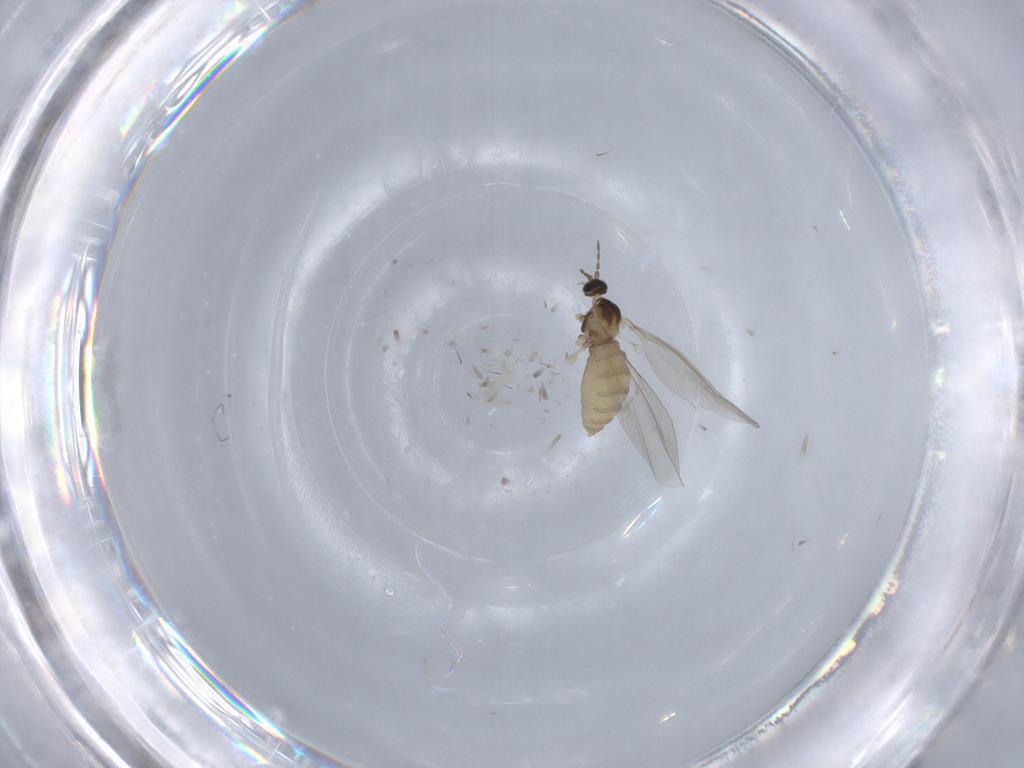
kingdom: Animalia
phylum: Arthropoda
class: Insecta
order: Diptera
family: Cecidomyiidae
